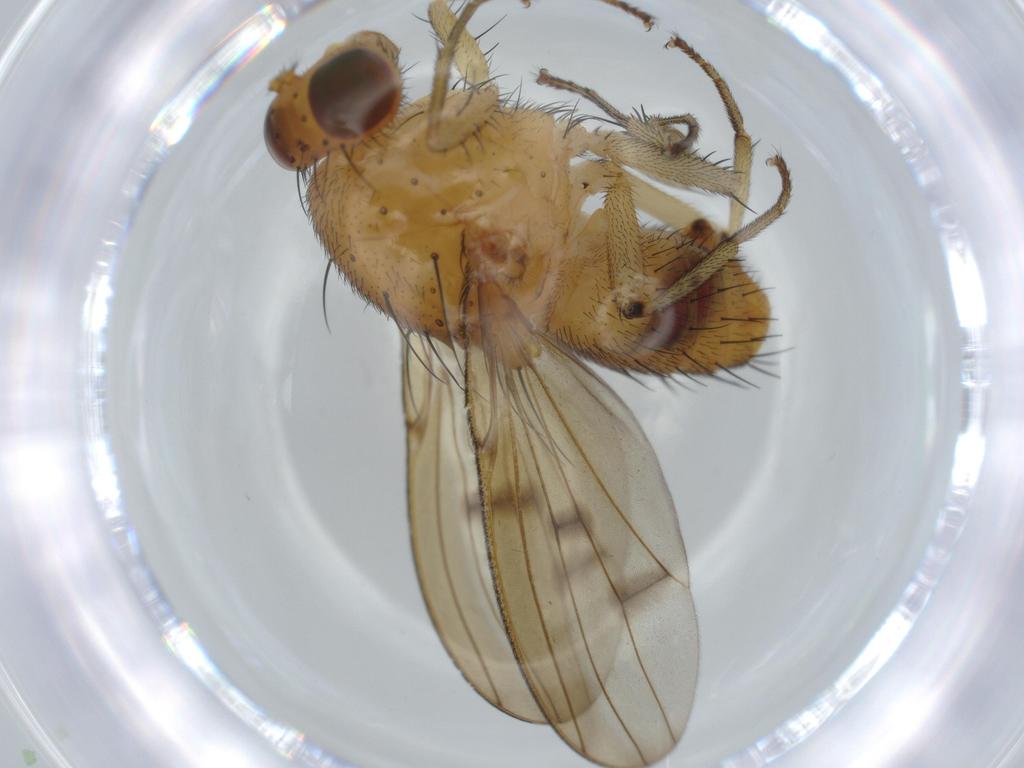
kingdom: Animalia
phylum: Arthropoda
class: Insecta
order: Diptera
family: Cecidomyiidae
